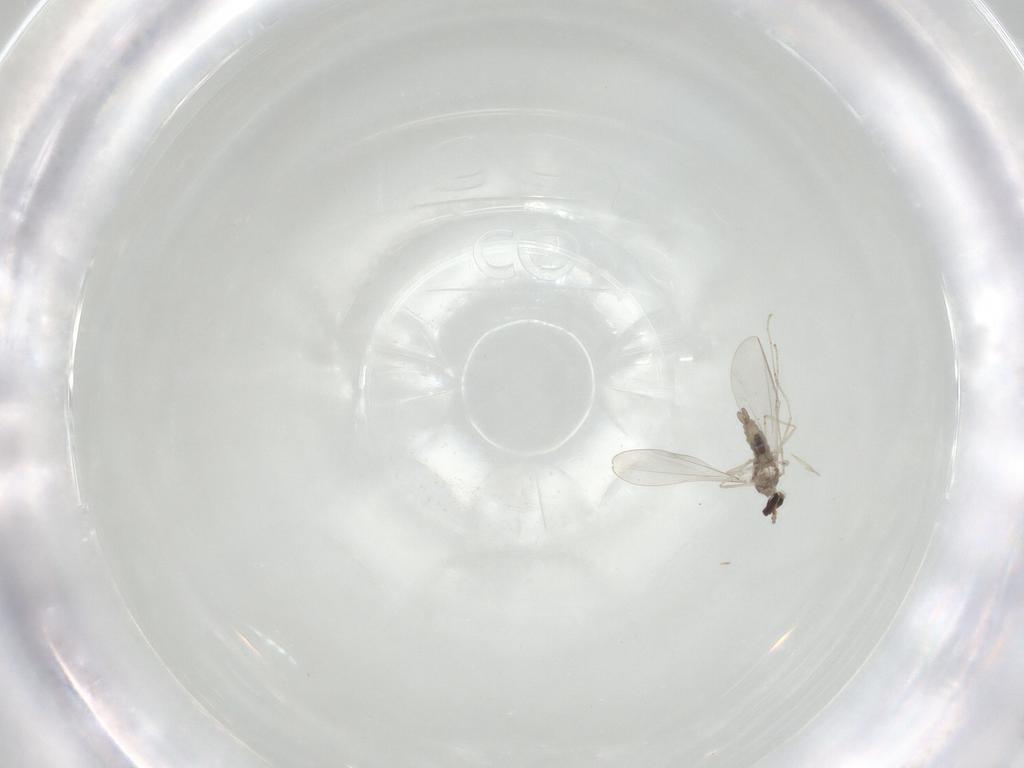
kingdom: Animalia
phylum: Arthropoda
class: Insecta
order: Diptera
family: Cecidomyiidae
